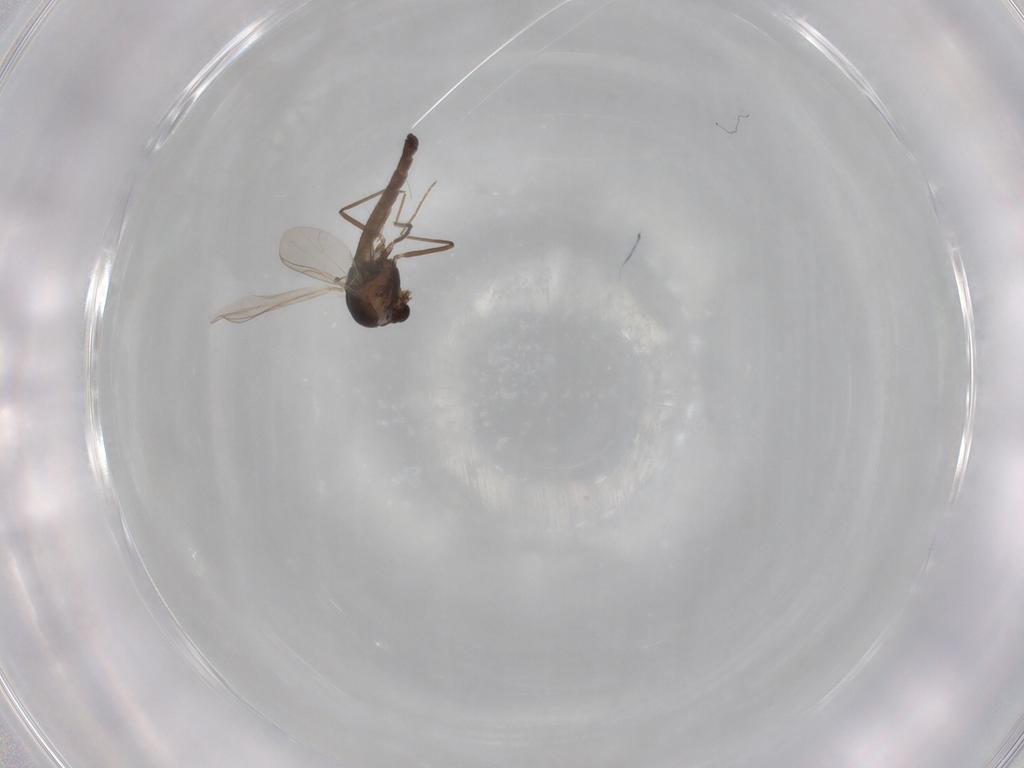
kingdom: Animalia
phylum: Arthropoda
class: Insecta
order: Diptera
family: Chironomidae
